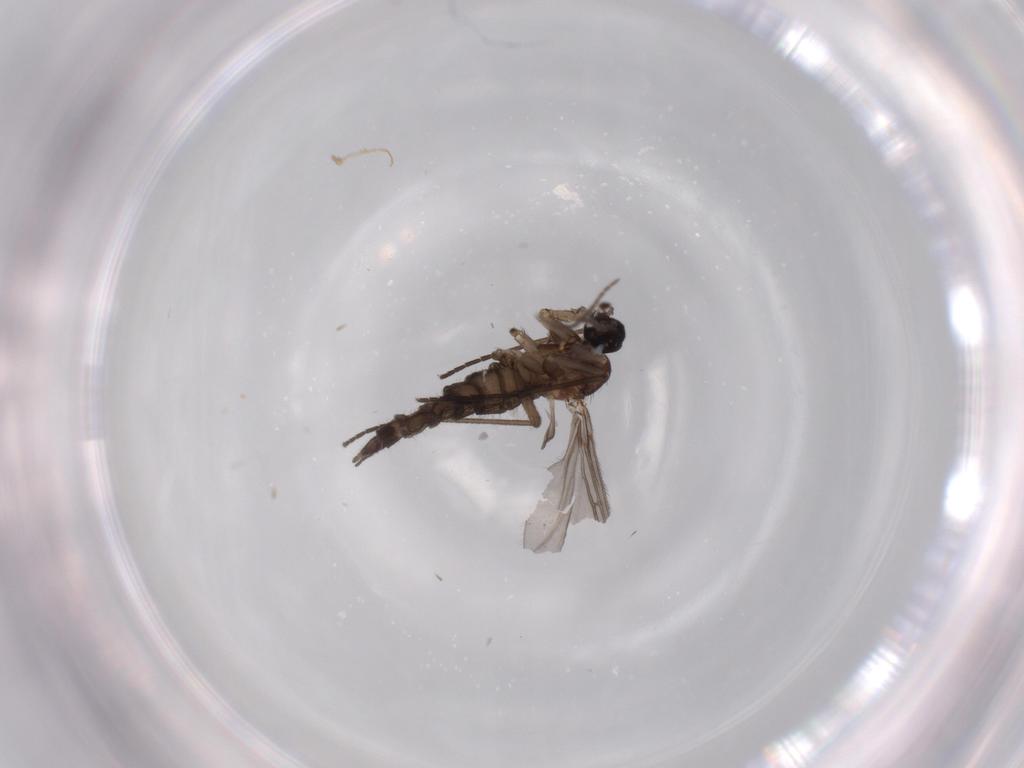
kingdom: Animalia
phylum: Arthropoda
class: Insecta
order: Diptera
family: Sciaridae
